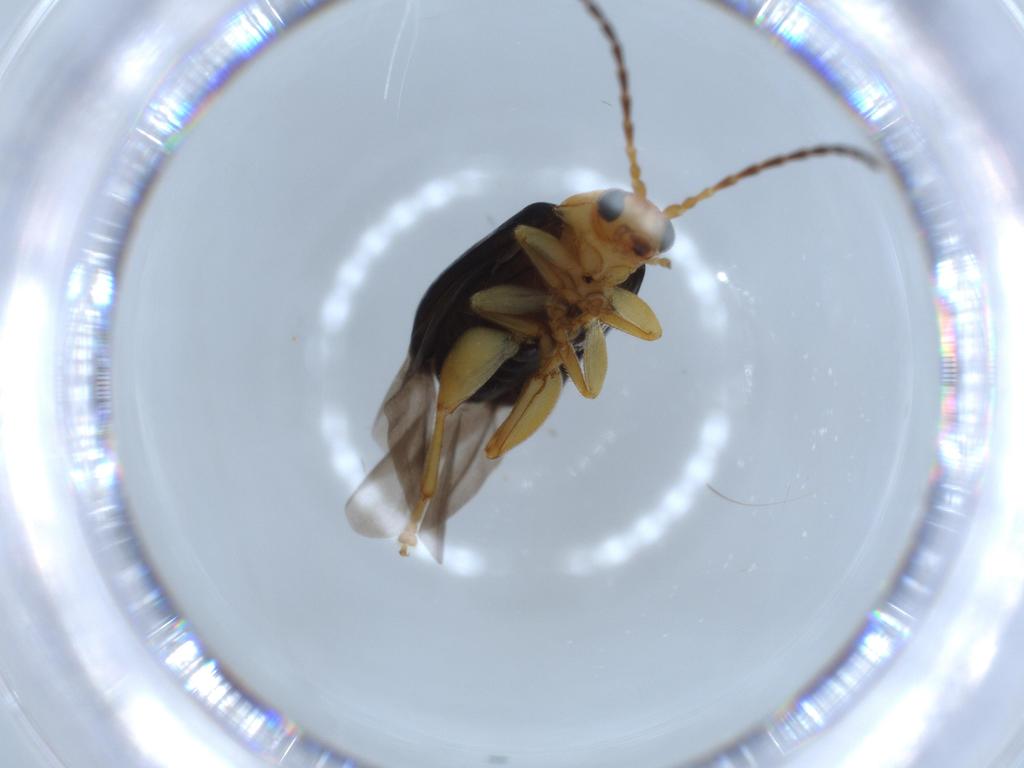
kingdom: Animalia
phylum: Arthropoda
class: Insecta
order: Coleoptera
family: Chrysomelidae
